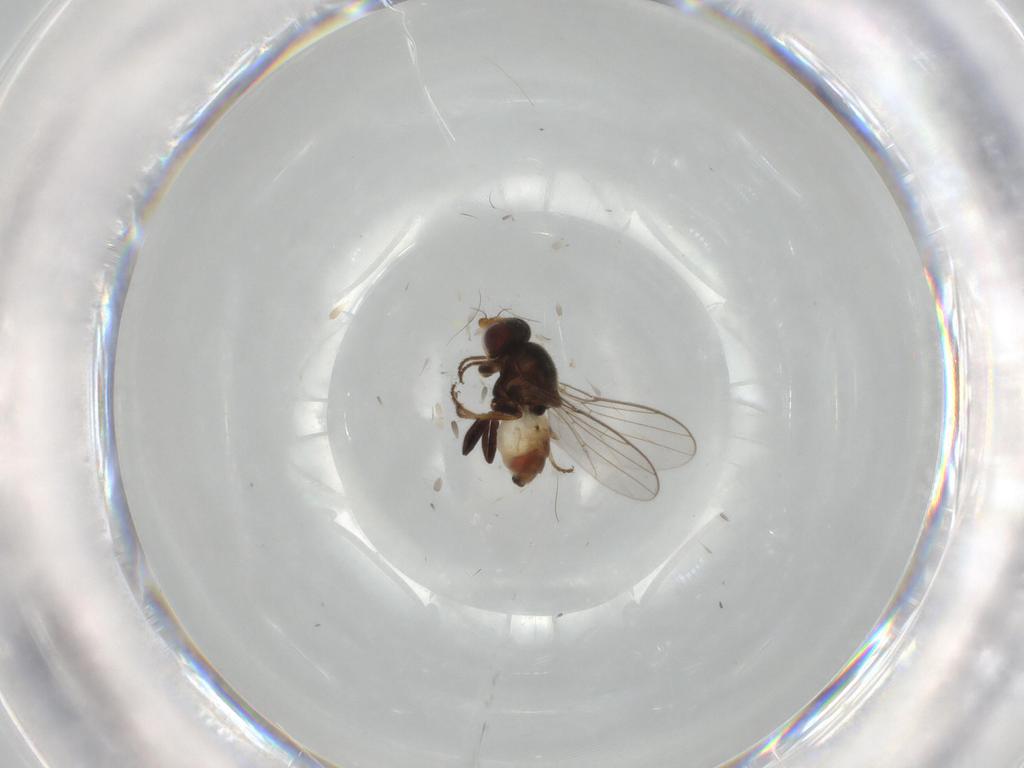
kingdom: Animalia
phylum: Arthropoda
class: Insecta
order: Diptera
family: Chloropidae
